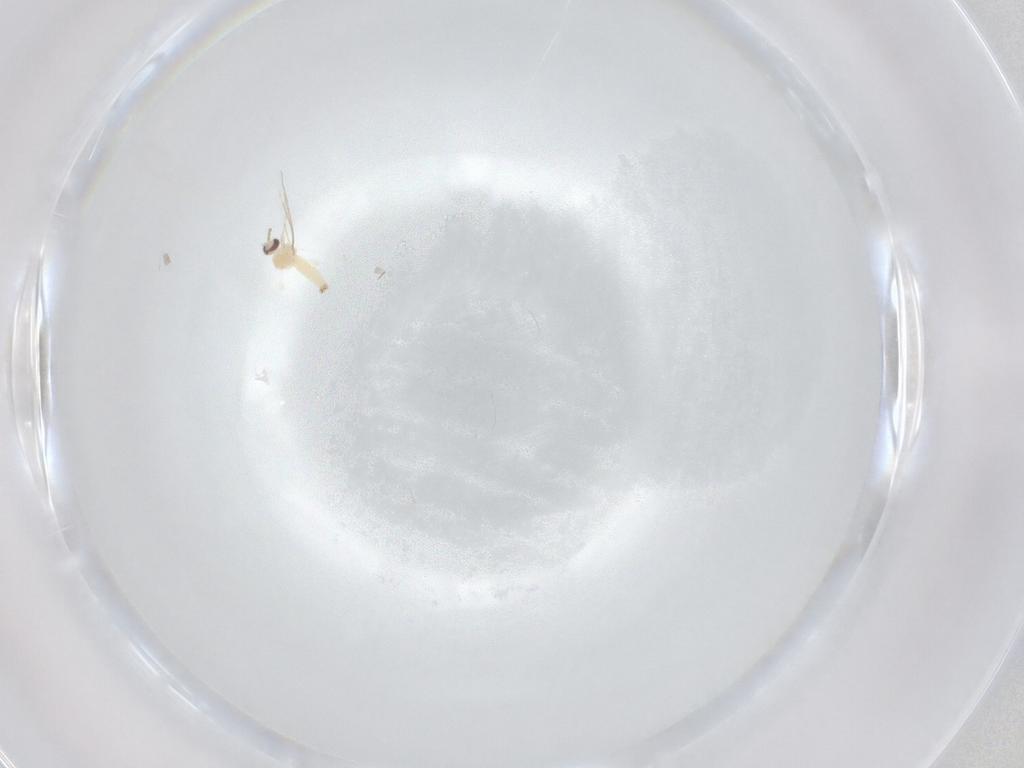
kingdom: Animalia
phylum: Arthropoda
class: Insecta
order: Diptera
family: Cecidomyiidae
